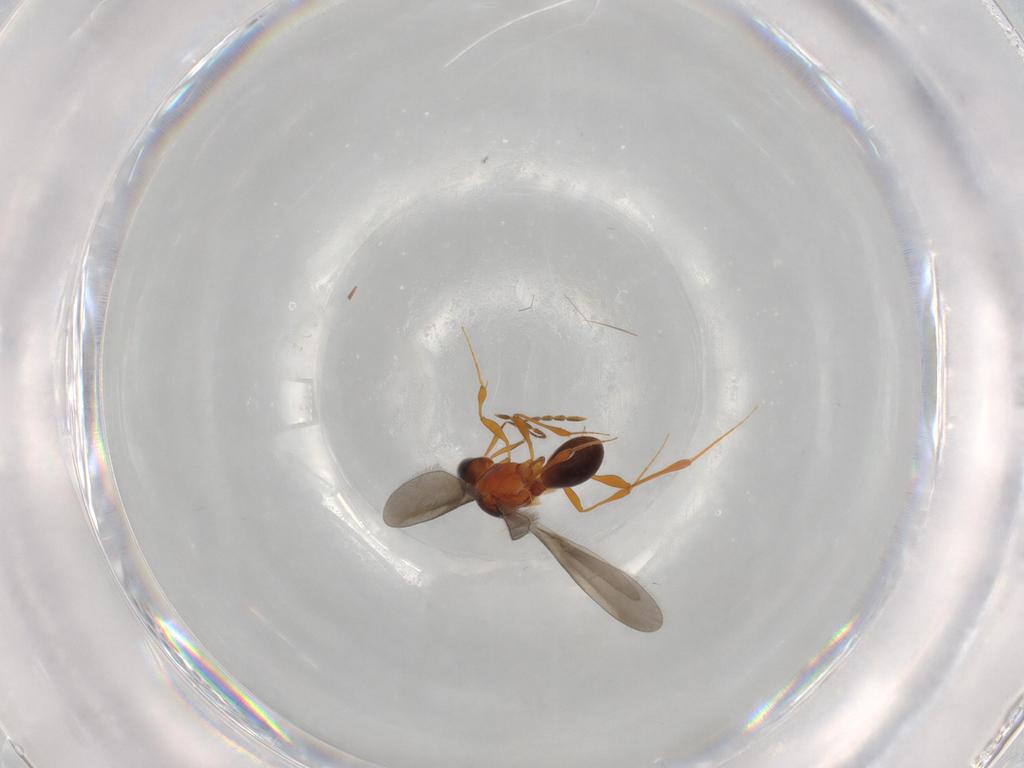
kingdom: Animalia
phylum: Arthropoda
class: Insecta
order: Hymenoptera
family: Platygastridae
